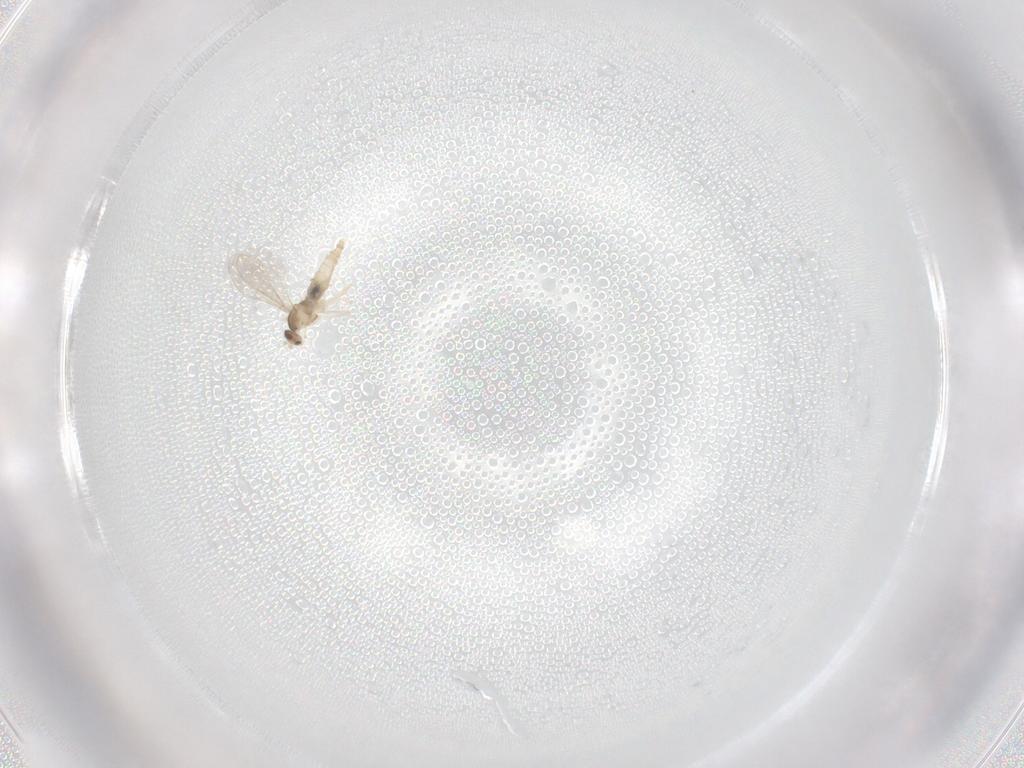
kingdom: Animalia
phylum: Arthropoda
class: Insecta
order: Diptera
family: Cecidomyiidae
